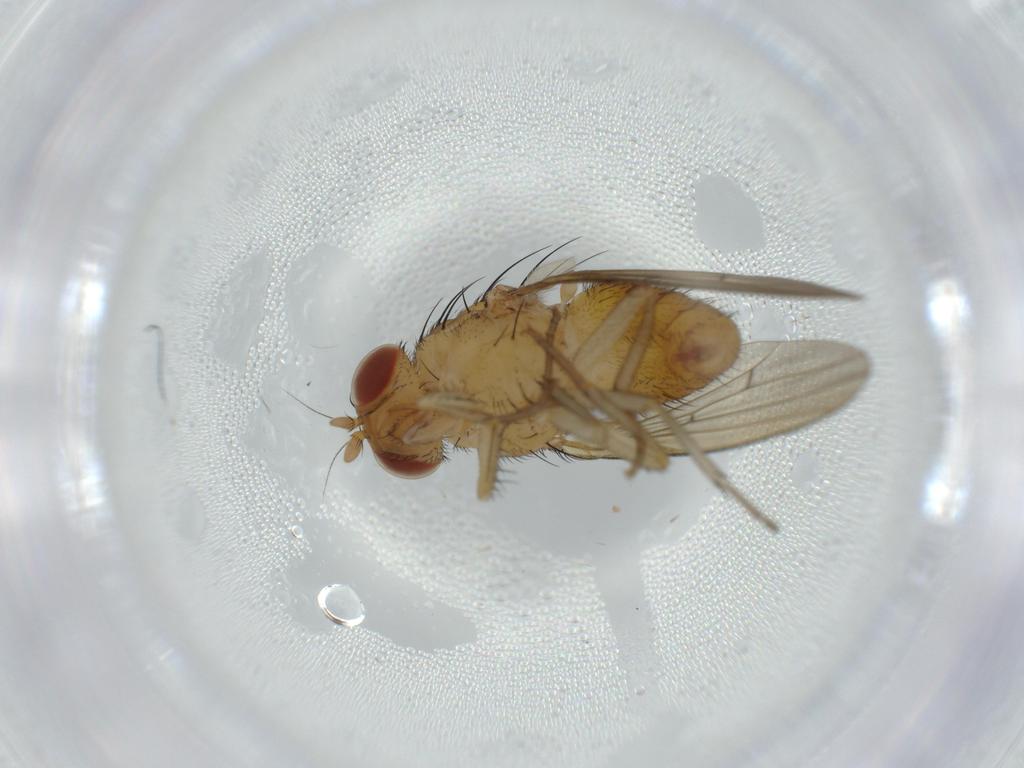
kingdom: Animalia
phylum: Arthropoda
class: Insecta
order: Diptera
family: Lauxaniidae
